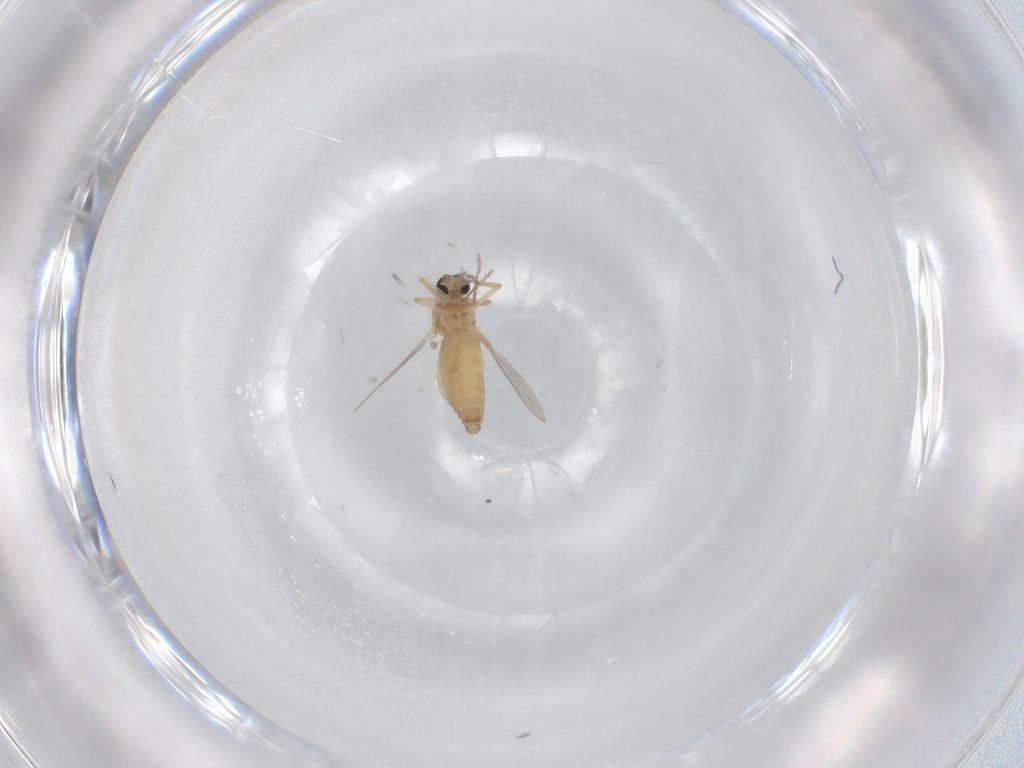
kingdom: Animalia
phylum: Arthropoda
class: Insecta
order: Diptera
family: Ceratopogonidae
